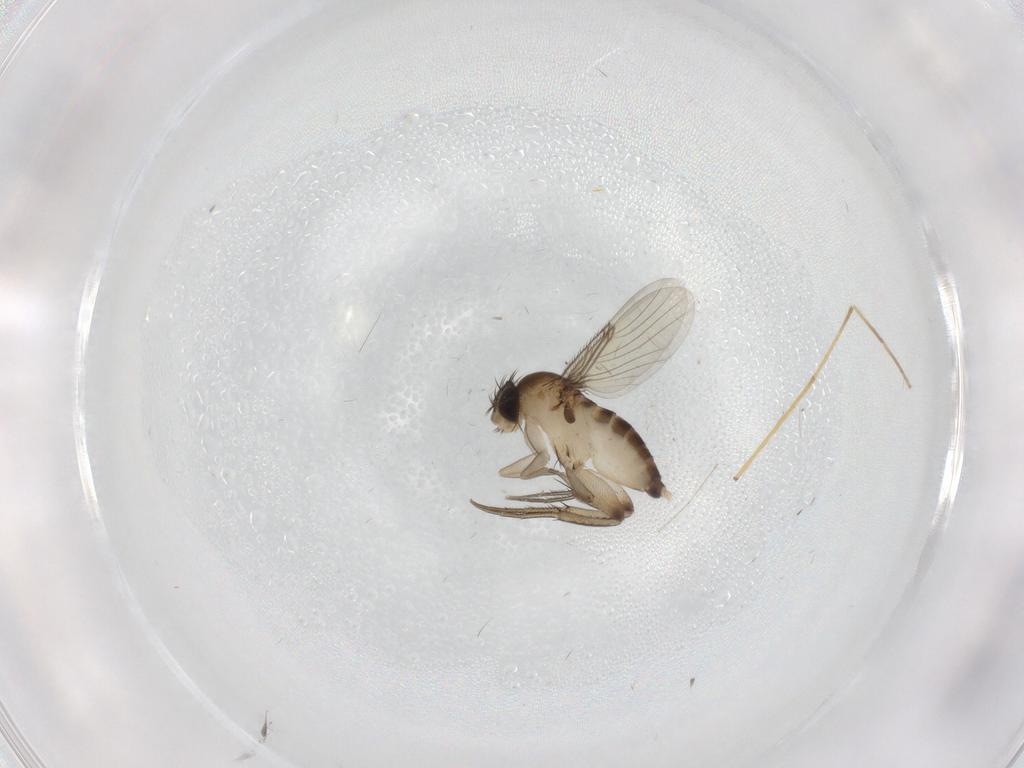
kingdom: Animalia
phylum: Arthropoda
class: Insecta
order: Diptera
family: Phoridae
